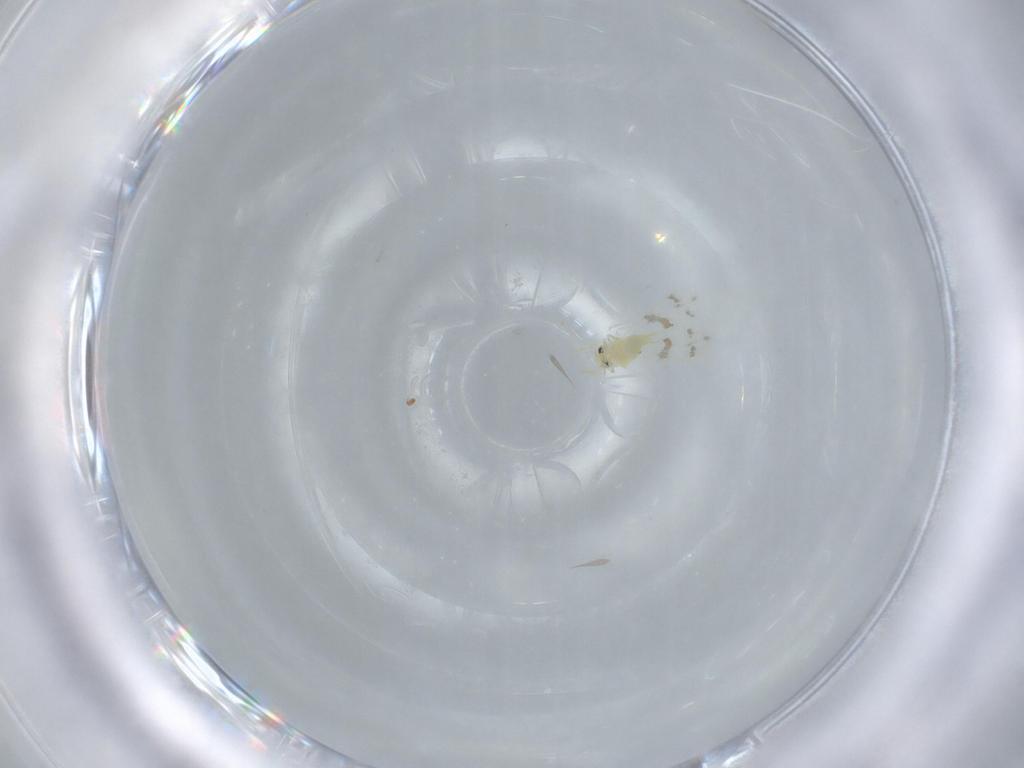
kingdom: Animalia
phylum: Arthropoda
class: Insecta
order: Hemiptera
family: Aleyrodidae
